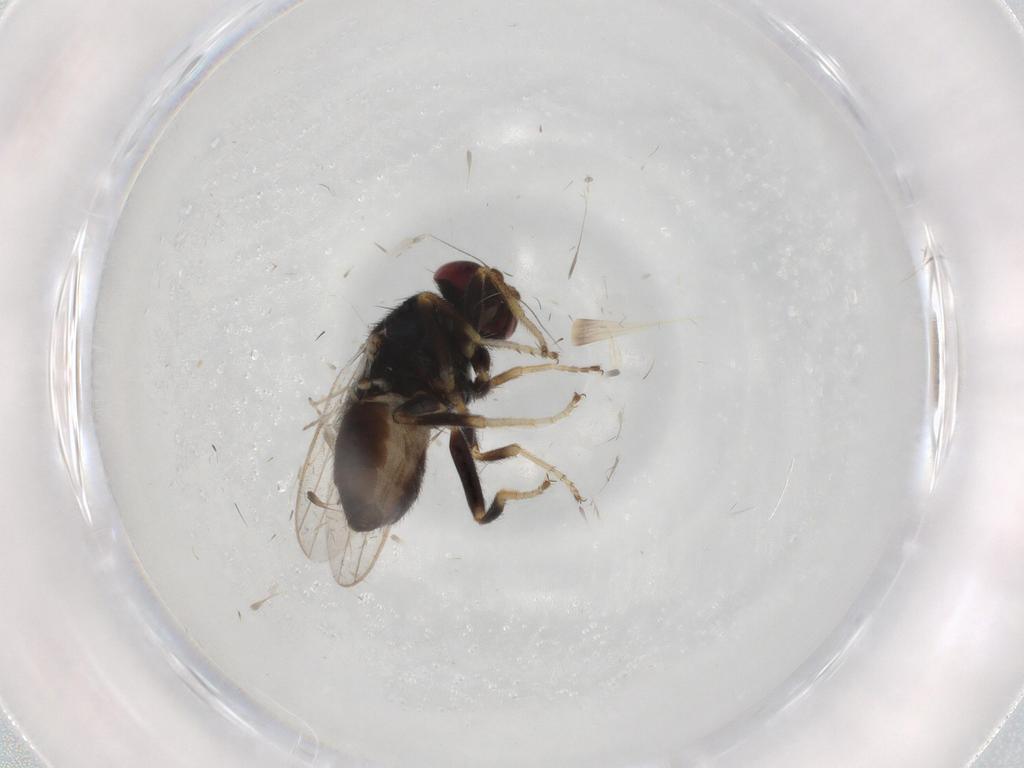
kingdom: Animalia
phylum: Arthropoda
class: Insecta
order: Diptera
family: Chloropidae
